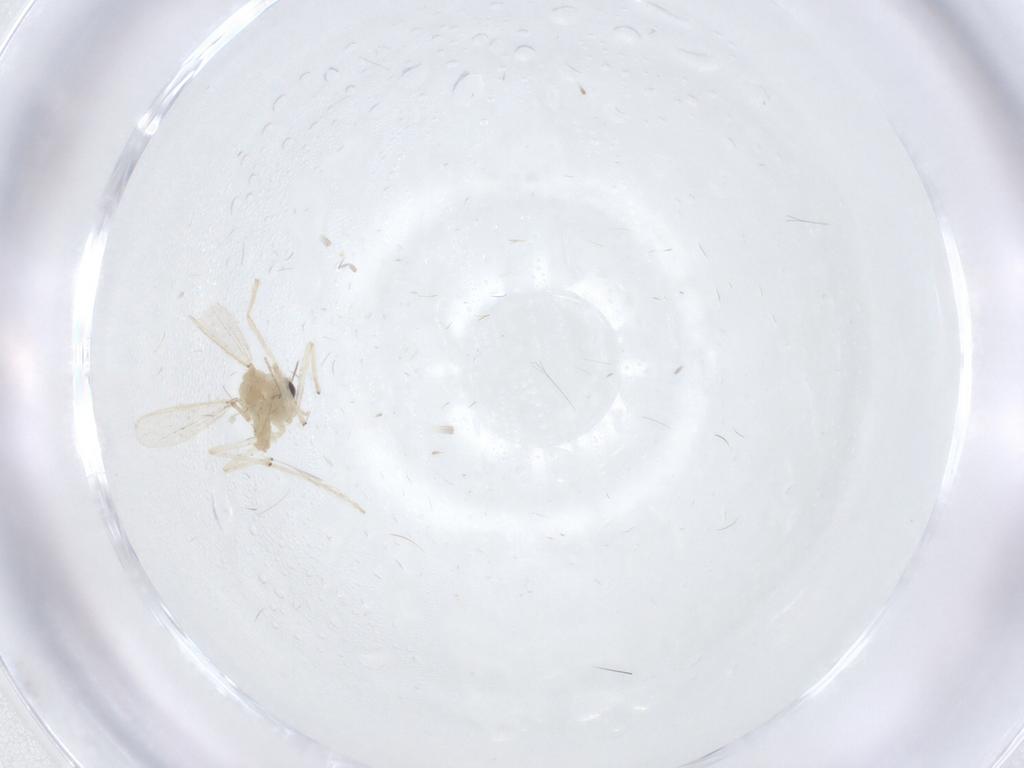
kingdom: Animalia
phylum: Arthropoda
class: Insecta
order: Diptera
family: Chironomidae
